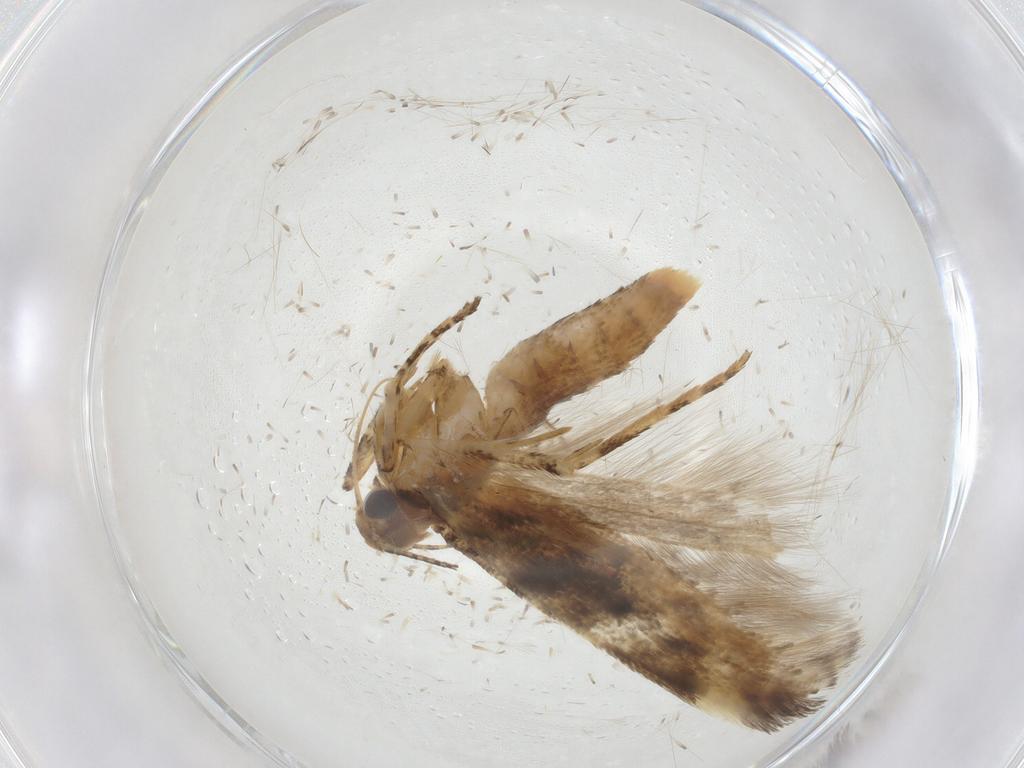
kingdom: Animalia
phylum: Arthropoda
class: Insecta
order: Lepidoptera
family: Gelechiidae
